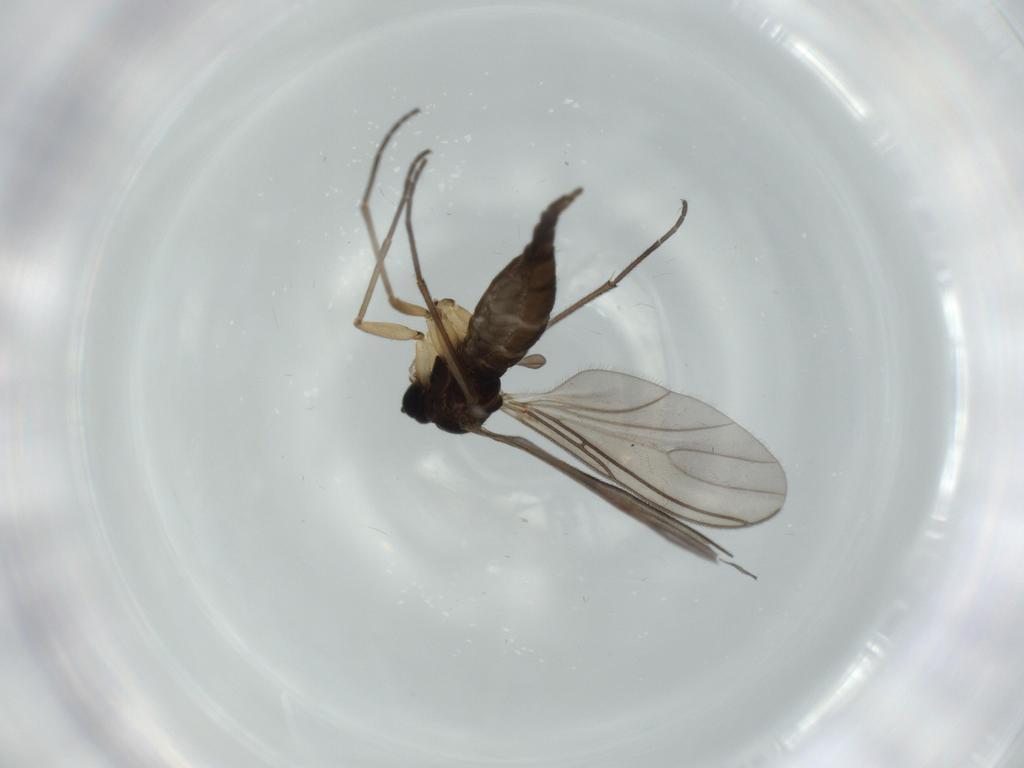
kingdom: Animalia
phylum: Arthropoda
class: Insecta
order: Diptera
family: Sciaridae
